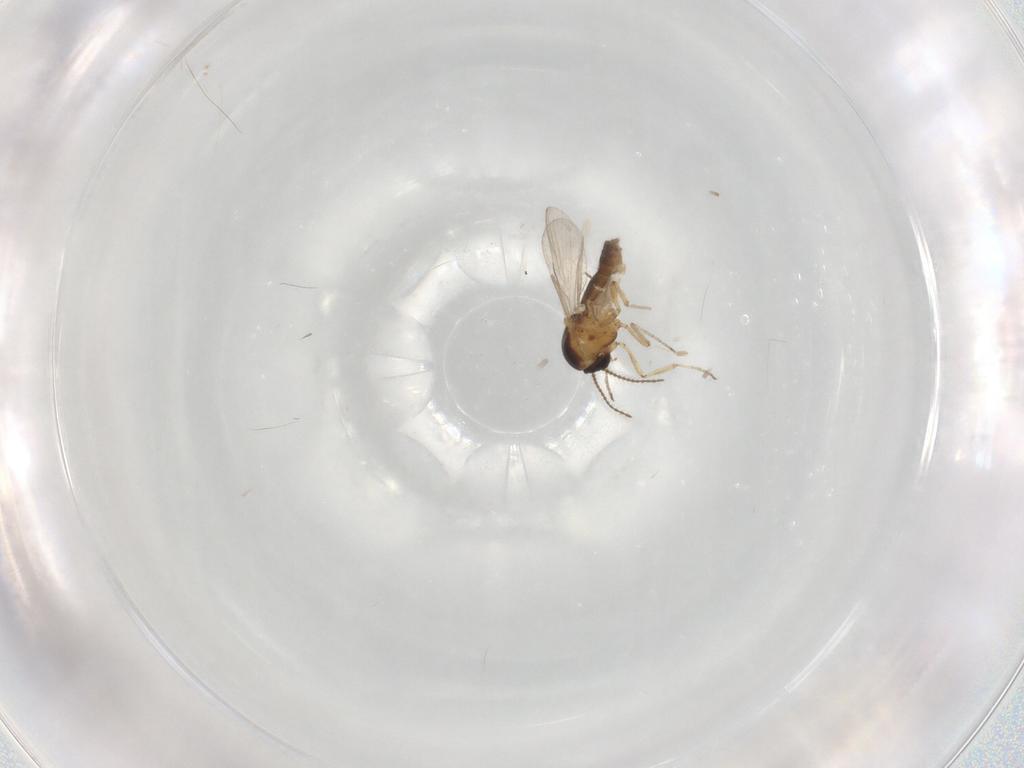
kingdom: Animalia
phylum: Arthropoda
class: Insecta
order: Diptera
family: Ceratopogonidae
